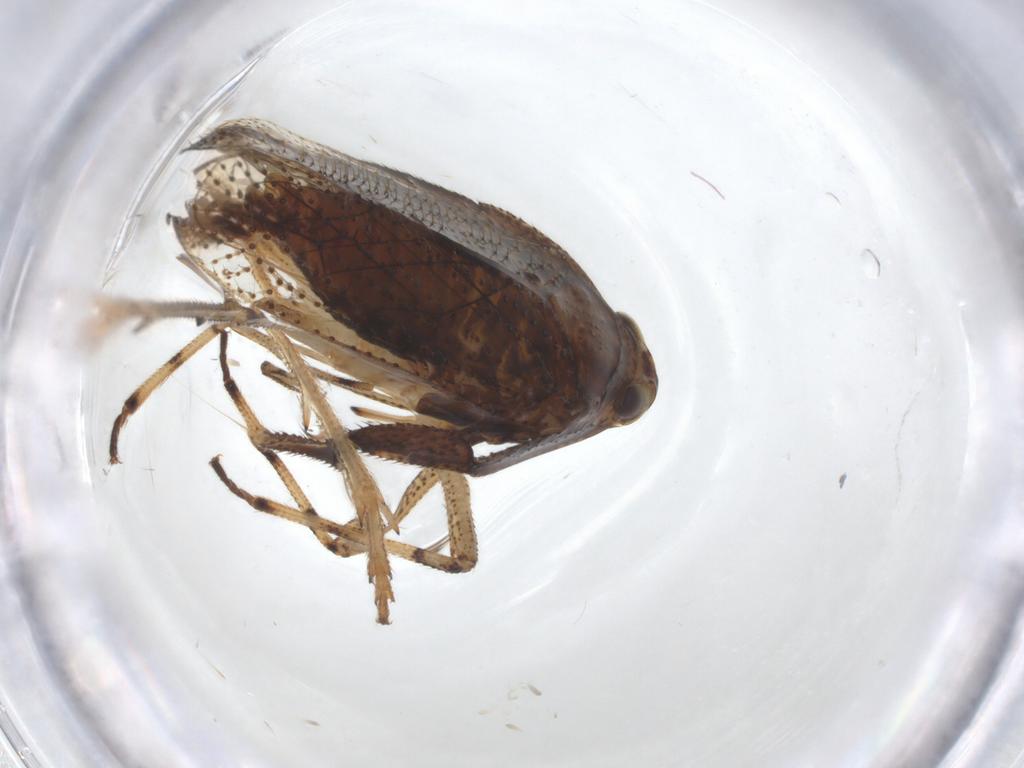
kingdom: Animalia
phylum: Arthropoda
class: Insecta
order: Hemiptera
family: Delphacidae
